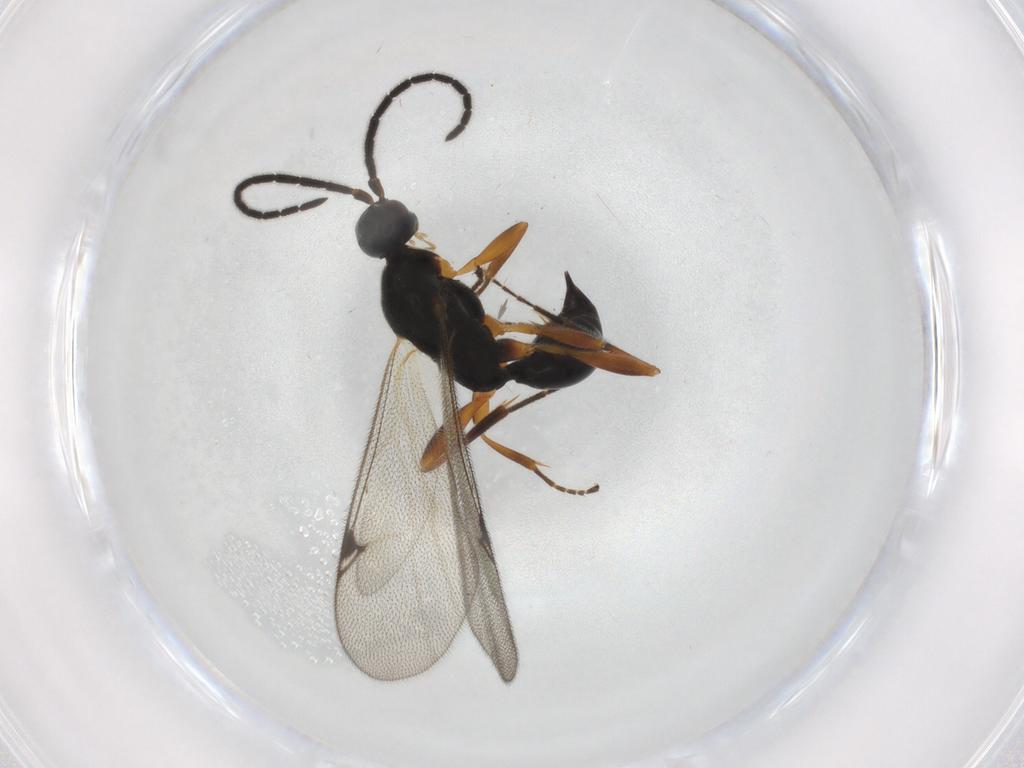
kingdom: Animalia
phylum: Arthropoda
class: Insecta
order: Hymenoptera
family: Proctotrupidae
